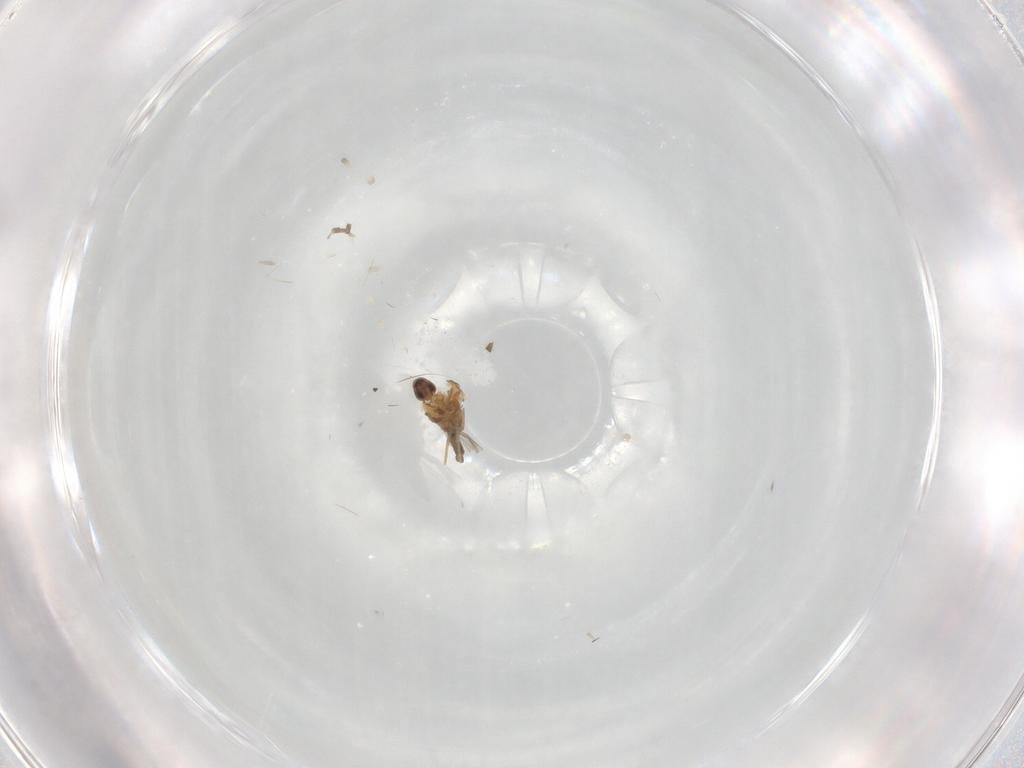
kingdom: Animalia
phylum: Arthropoda
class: Insecta
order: Diptera
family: Cecidomyiidae
